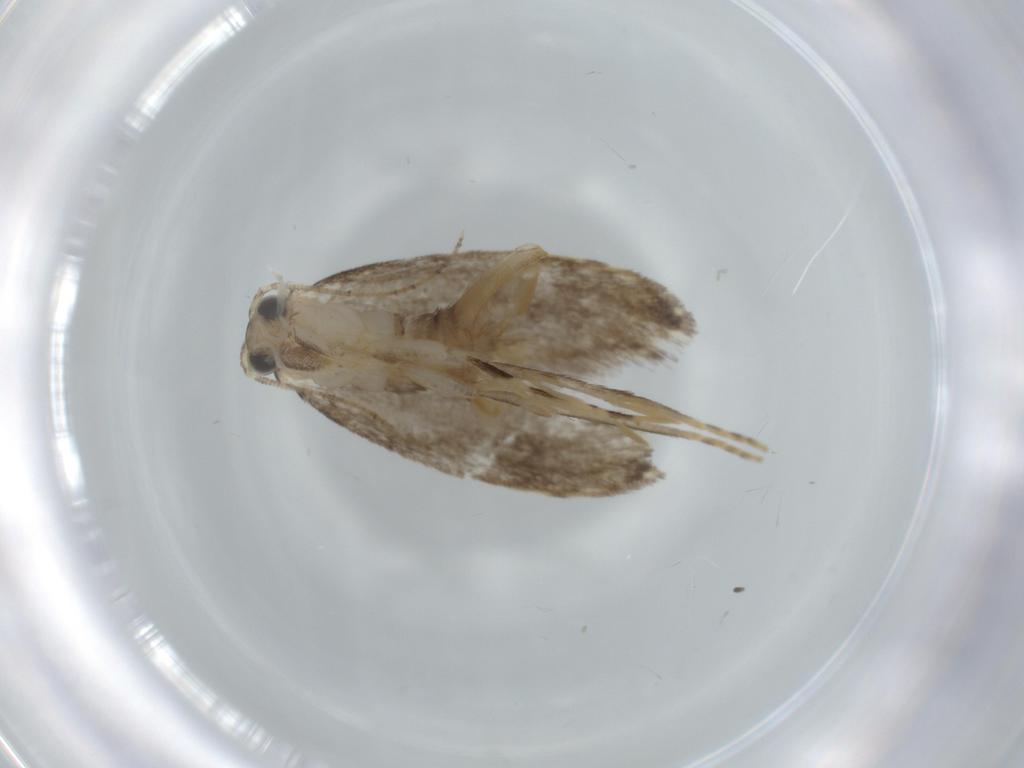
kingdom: Animalia
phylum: Arthropoda
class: Insecta
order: Lepidoptera
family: Tineidae
